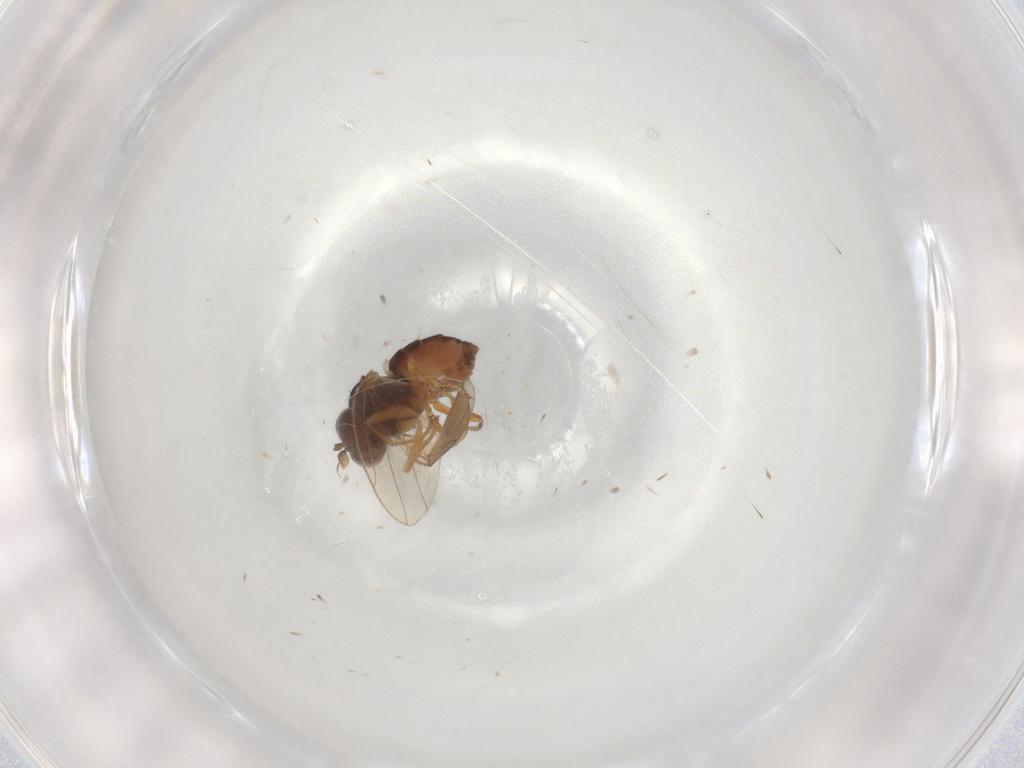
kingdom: Animalia
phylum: Arthropoda
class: Insecta
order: Diptera
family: Ephydridae
